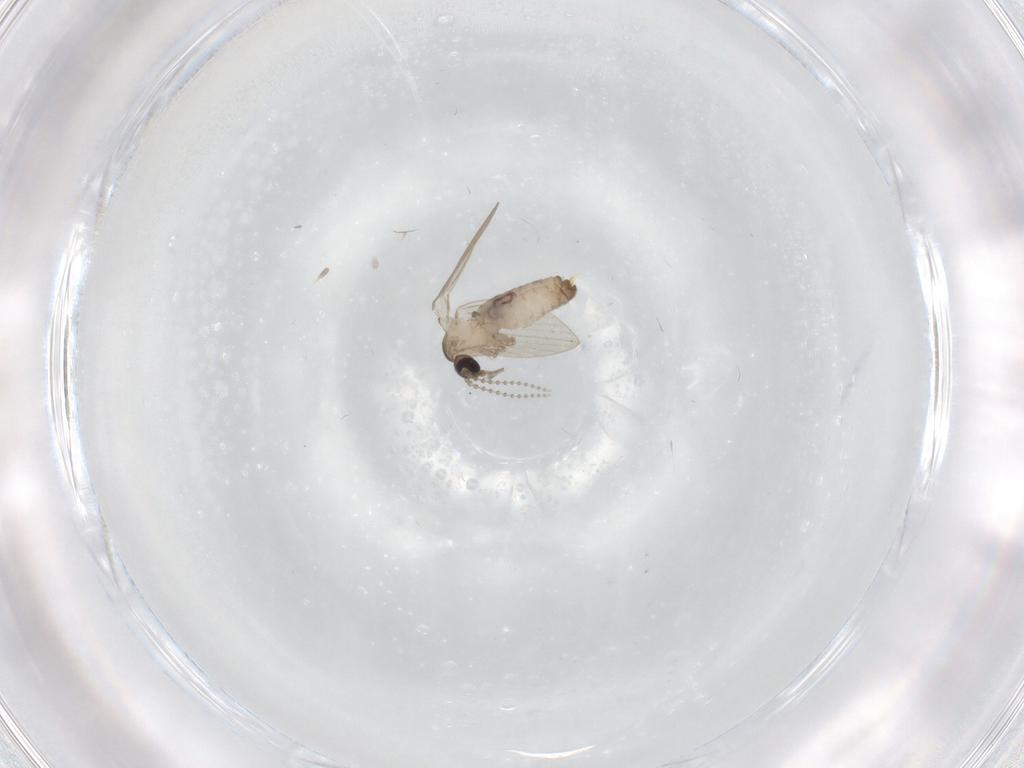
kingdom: Animalia
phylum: Arthropoda
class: Insecta
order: Diptera
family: Psychodidae
